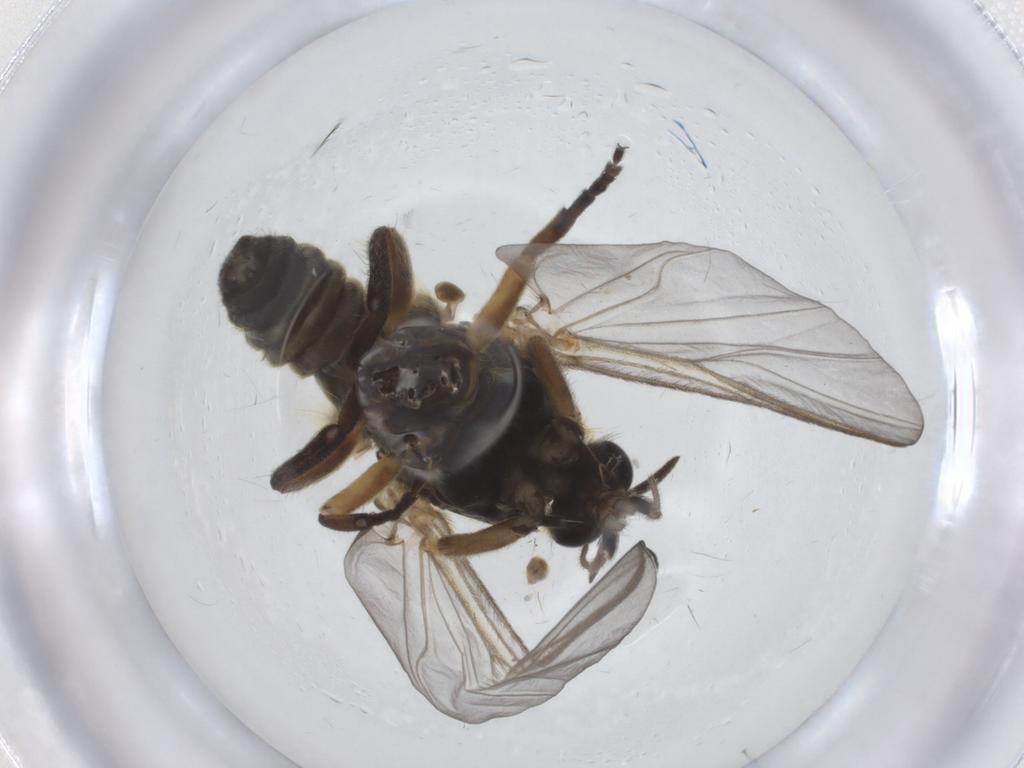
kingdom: Animalia
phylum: Arthropoda
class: Insecta
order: Diptera
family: Simuliidae
